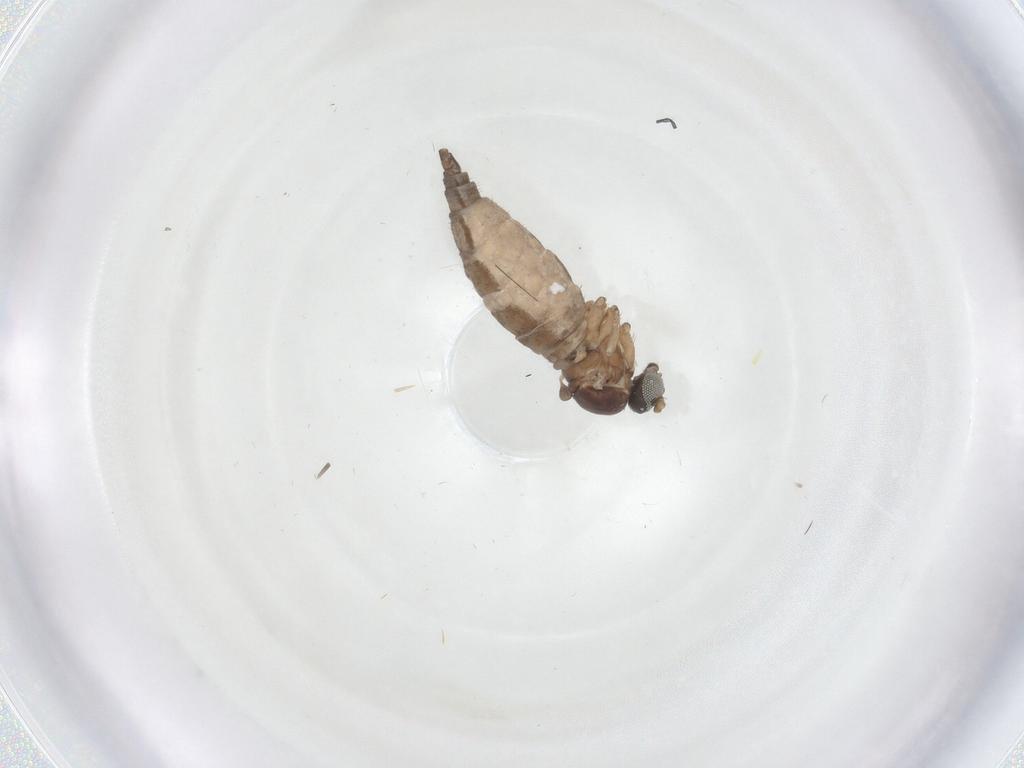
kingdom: Animalia
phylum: Arthropoda
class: Insecta
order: Diptera
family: Sciaridae
